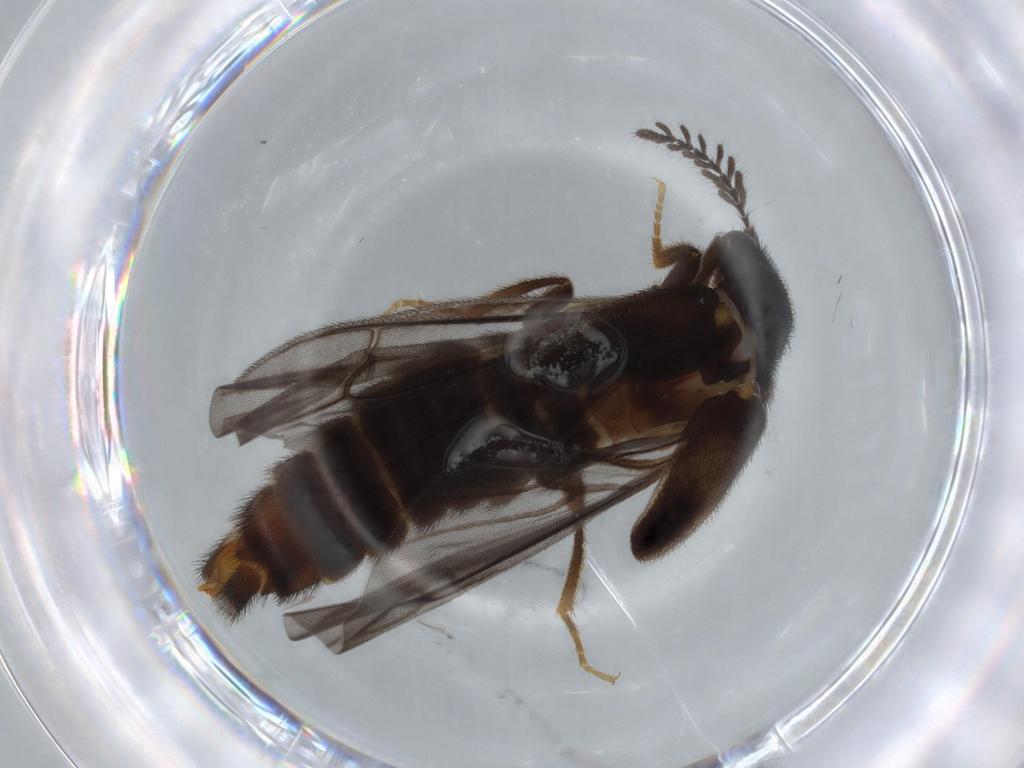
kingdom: Animalia
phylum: Arthropoda
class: Insecta
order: Coleoptera
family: Phengodidae
